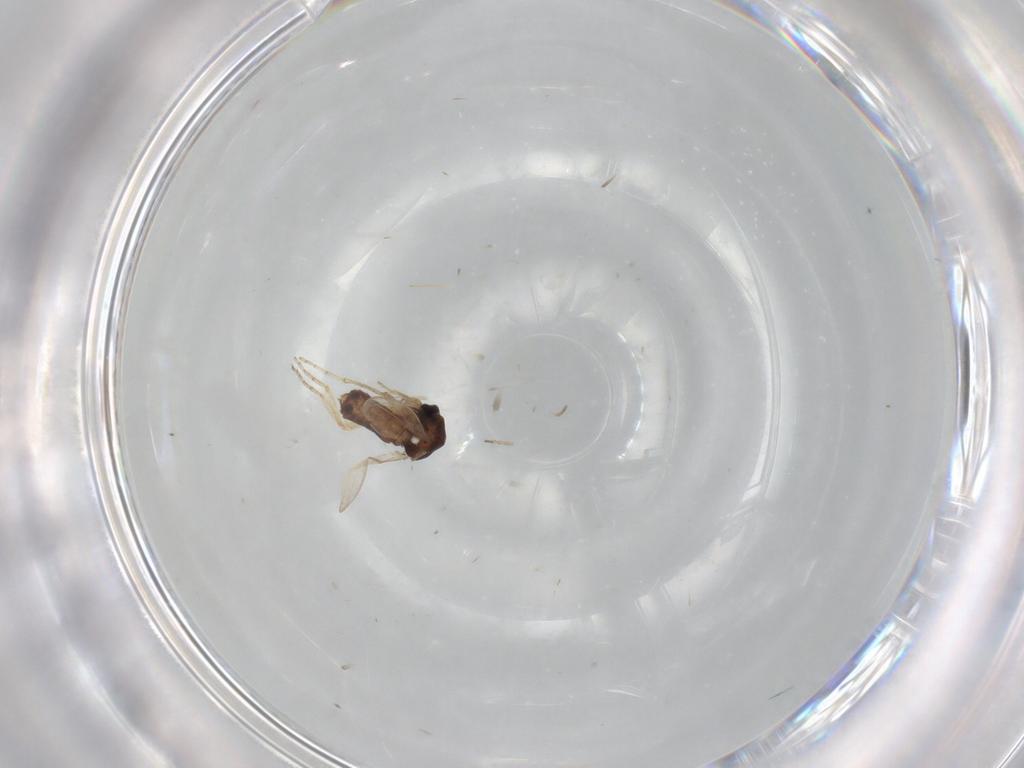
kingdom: Animalia
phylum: Arthropoda
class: Insecta
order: Diptera
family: Ceratopogonidae
